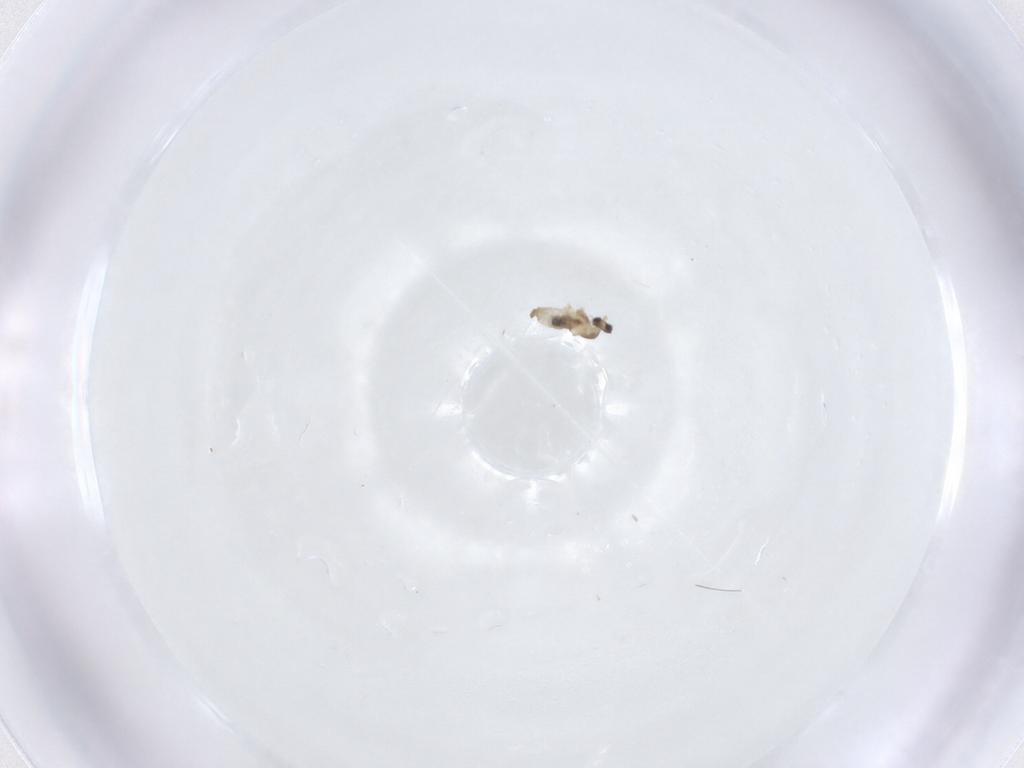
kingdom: Animalia
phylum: Arthropoda
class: Insecta
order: Diptera
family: Cecidomyiidae
